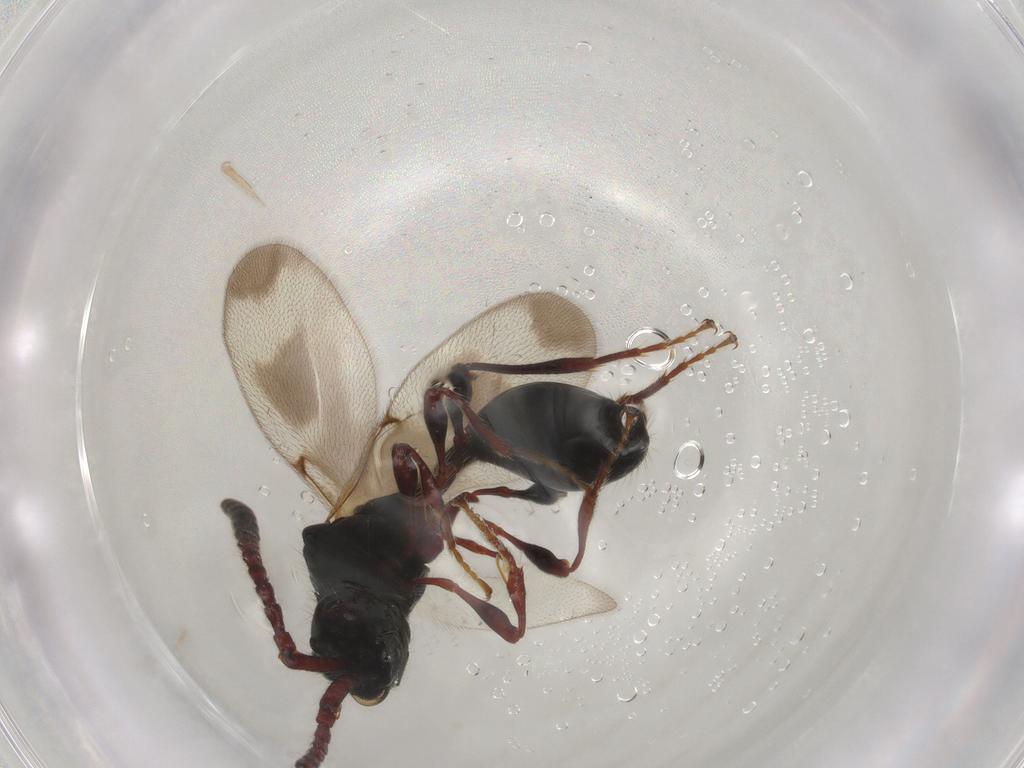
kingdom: Animalia
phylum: Arthropoda
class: Insecta
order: Hymenoptera
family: Diapriidae
